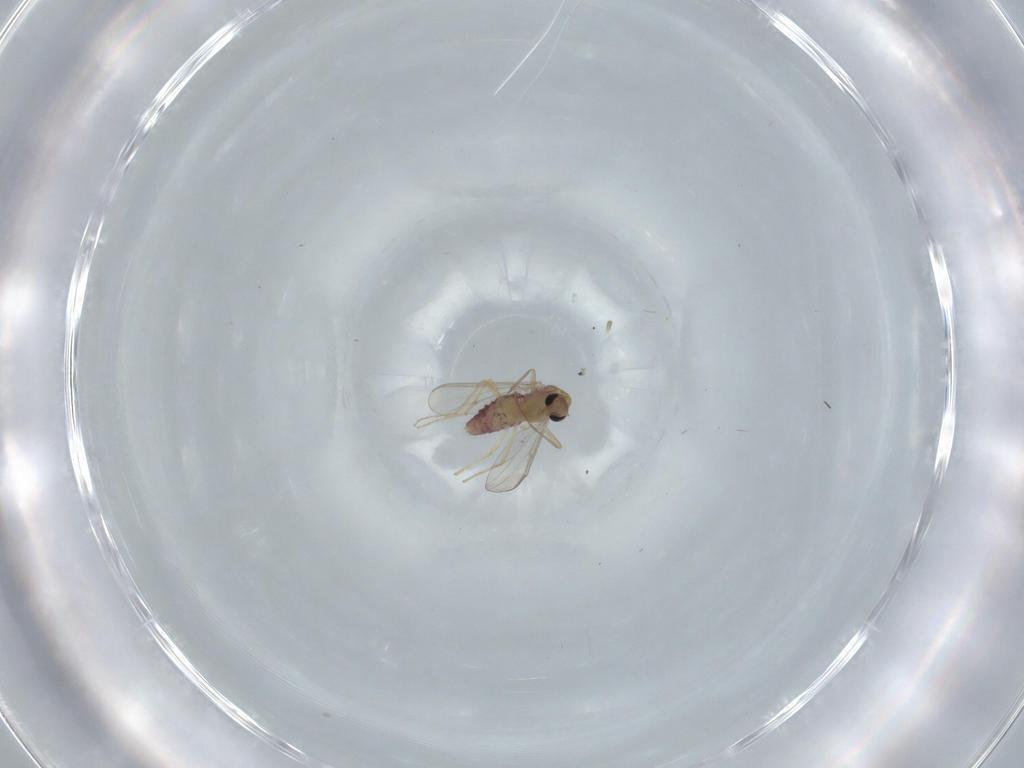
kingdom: Animalia
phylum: Arthropoda
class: Insecta
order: Diptera
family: Chironomidae
